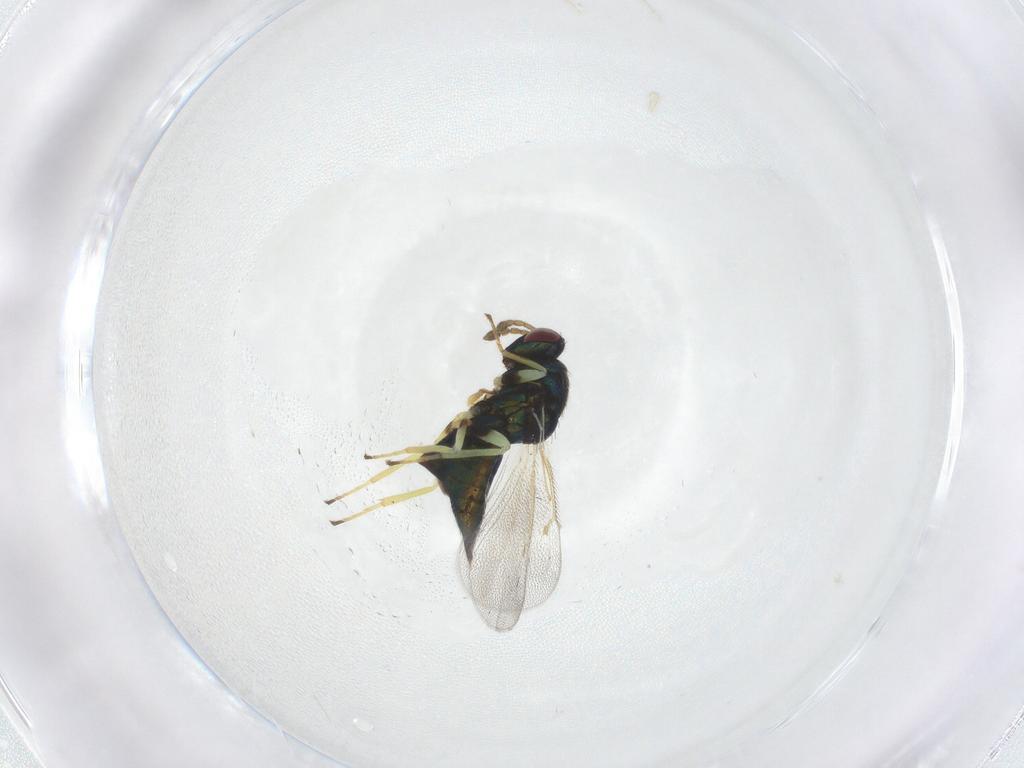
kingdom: Animalia
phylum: Arthropoda
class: Insecta
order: Hymenoptera
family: Eulophidae
